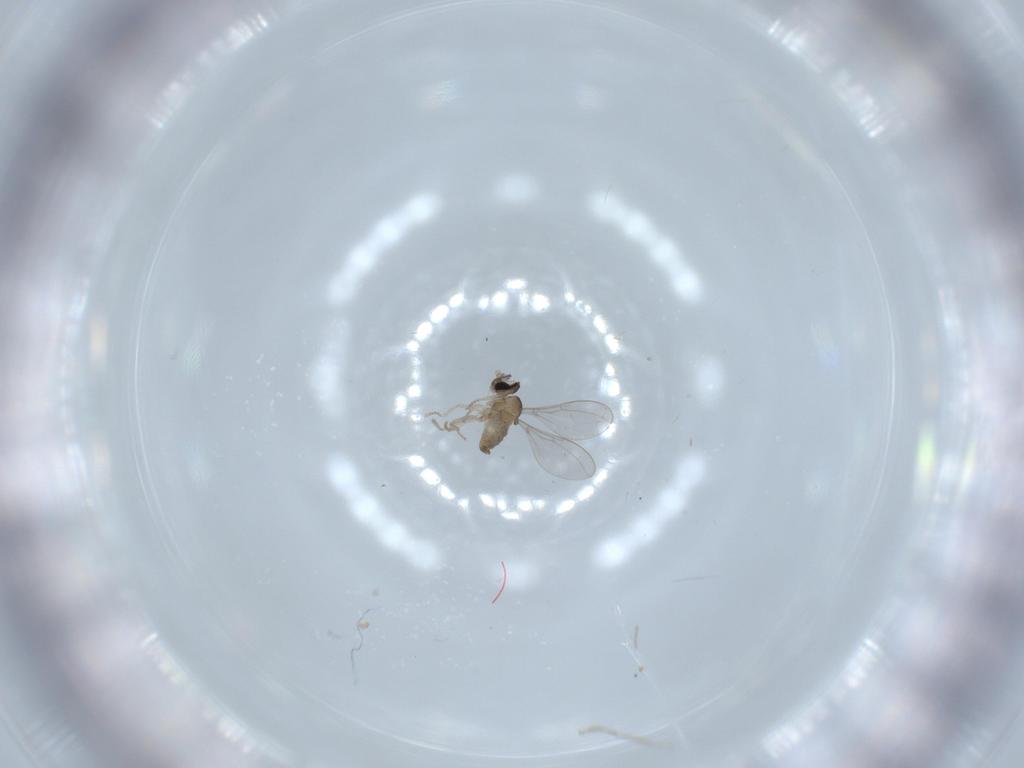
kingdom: Animalia
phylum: Arthropoda
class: Insecta
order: Diptera
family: Cecidomyiidae
